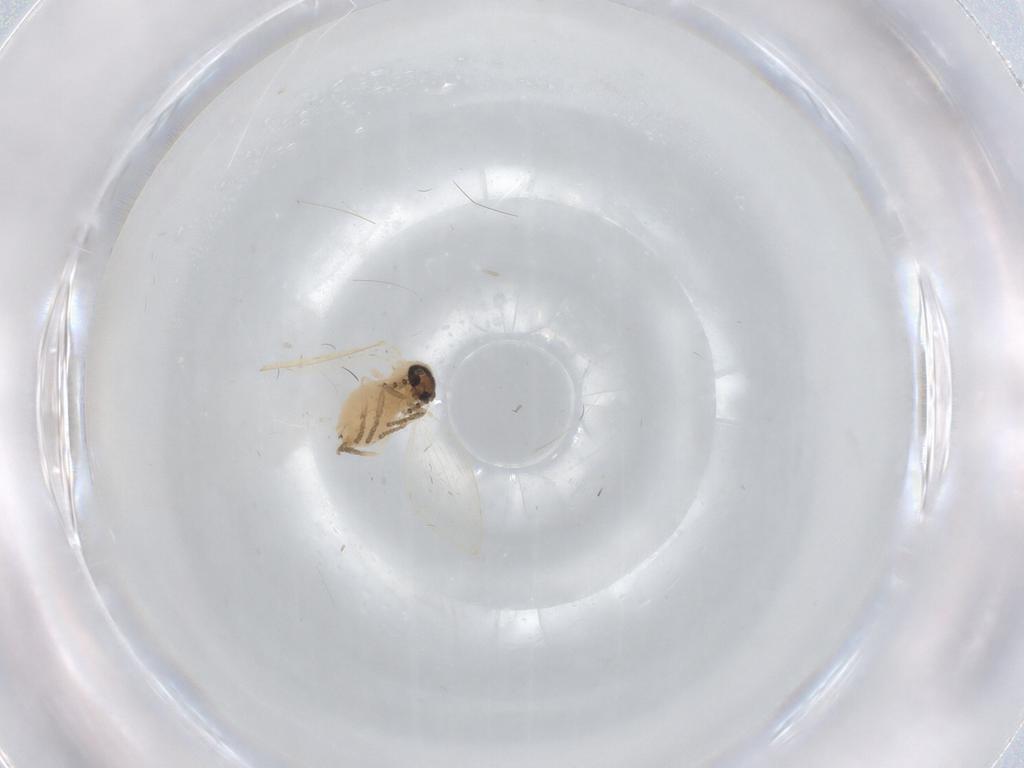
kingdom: Animalia
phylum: Arthropoda
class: Insecta
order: Diptera
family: Psychodidae
